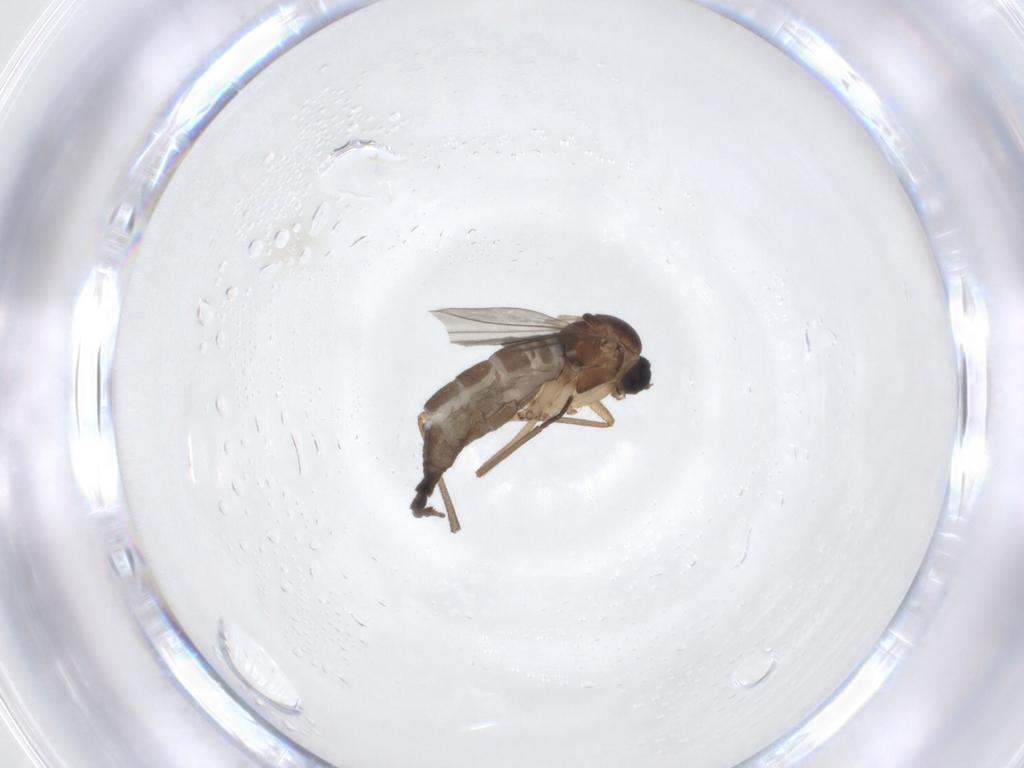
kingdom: Animalia
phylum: Arthropoda
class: Insecta
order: Diptera
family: Sciaridae
